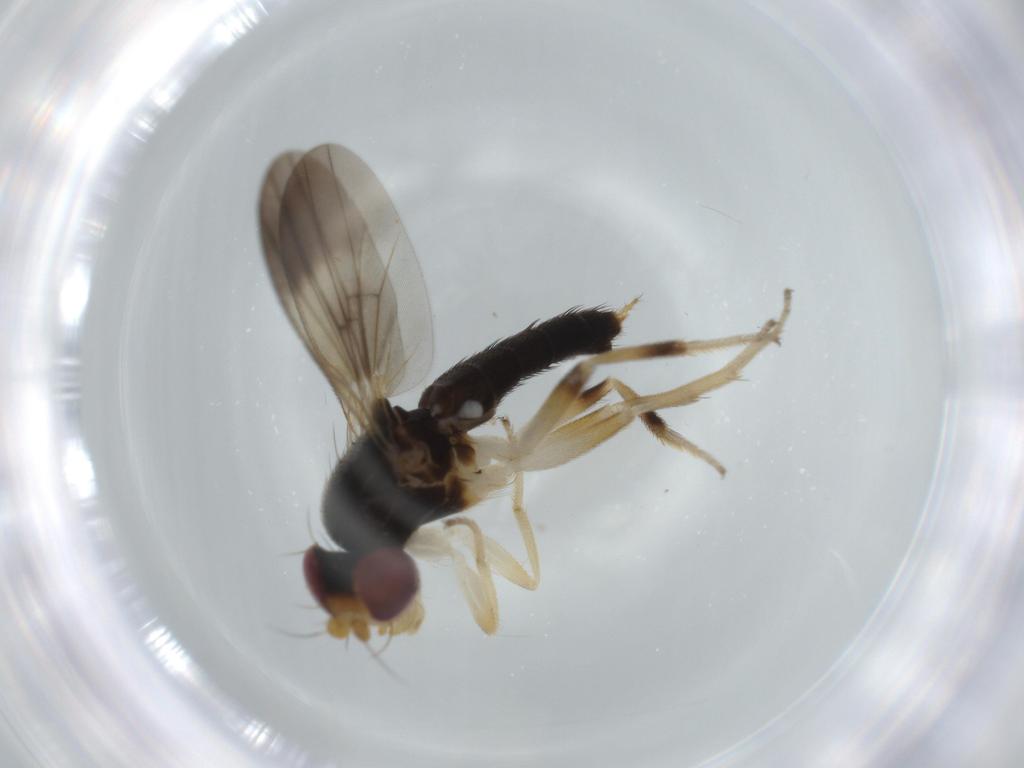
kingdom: Animalia
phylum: Arthropoda
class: Insecta
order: Diptera
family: Clusiidae
